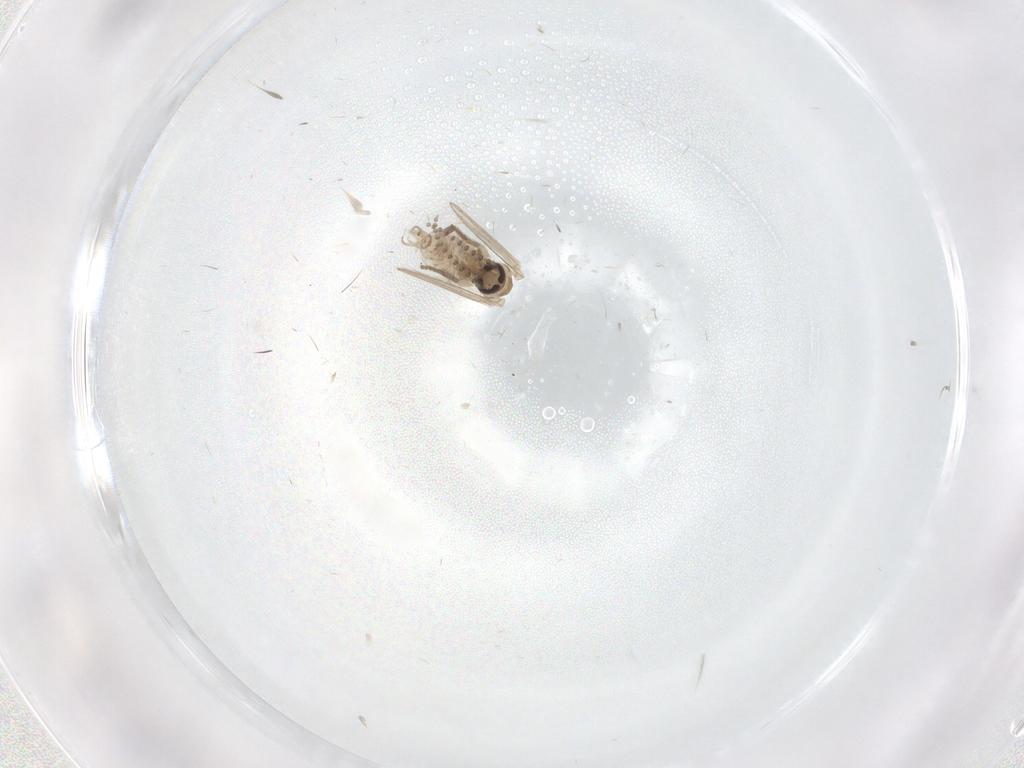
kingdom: Animalia
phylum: Arthropoda
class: Insecta
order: Diptera
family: Psychodidae
